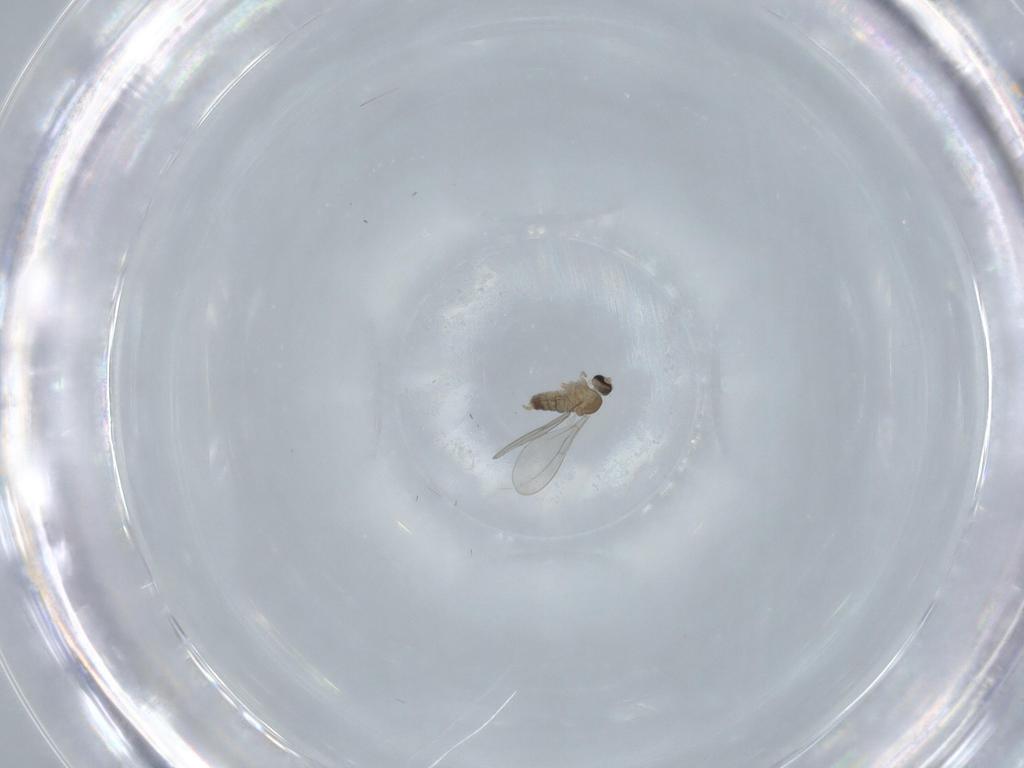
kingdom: Animalia
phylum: Arthropoda
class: Insecta
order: Diptera
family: Cecidomyiidae
